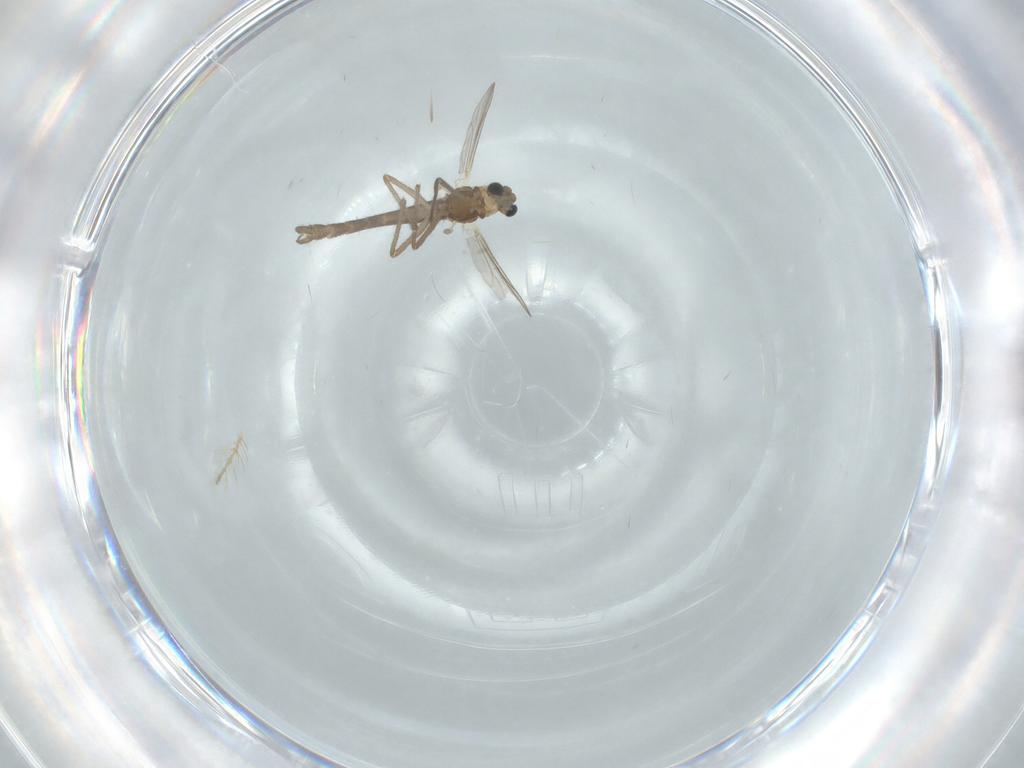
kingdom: Animalia
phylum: Arthropoda
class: Insecta
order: Diptera
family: Chironomidae
